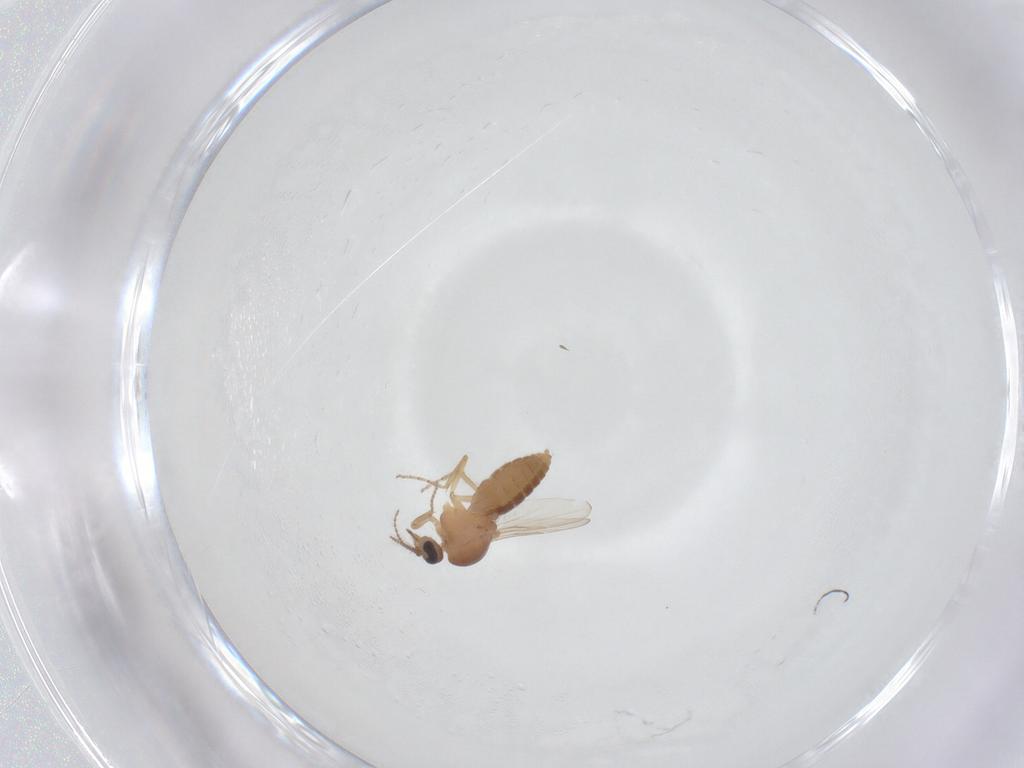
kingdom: Animalia
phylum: Arthropoda
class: Insecta
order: Diptera
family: Ceratopogonidae
